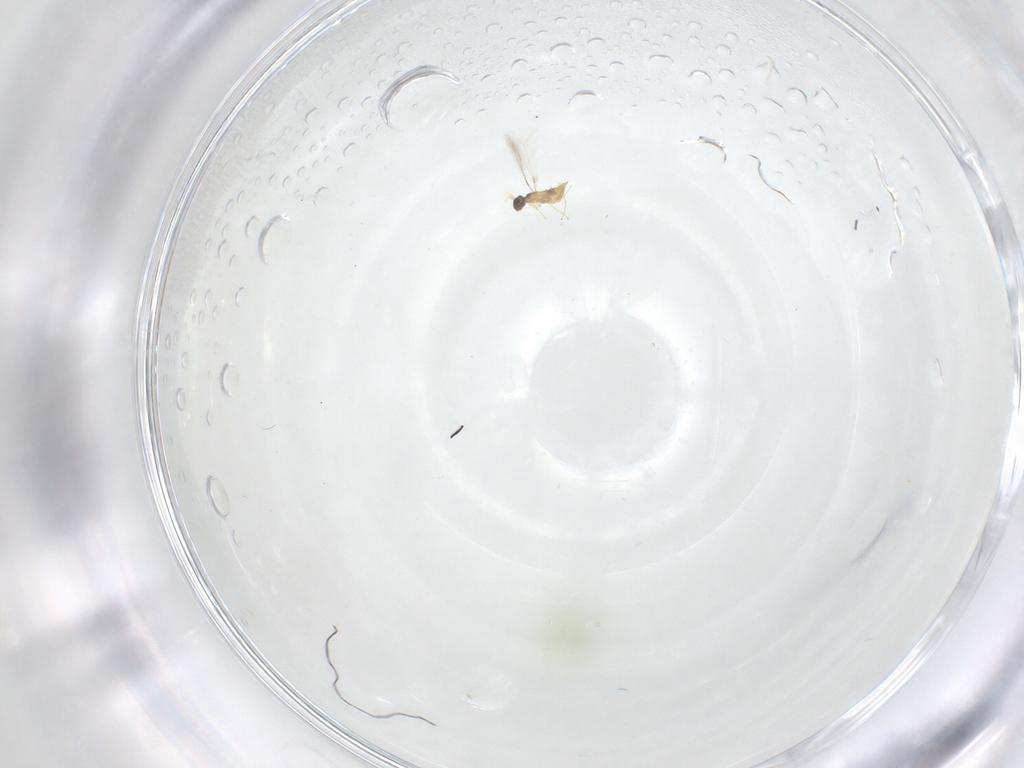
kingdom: Animalia
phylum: Arthropoda
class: Insecta
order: Hymenoptera
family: Mymaridae
